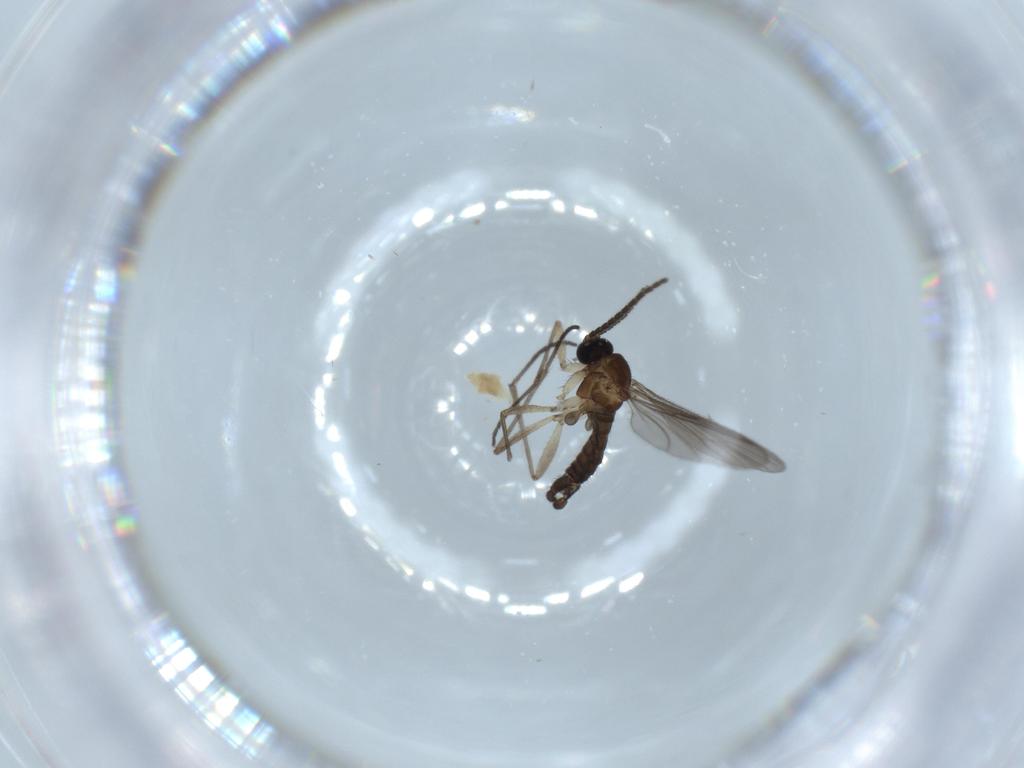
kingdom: Animalia
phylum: Arthropoda
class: Insecta
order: Diptera
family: Sciaridae
